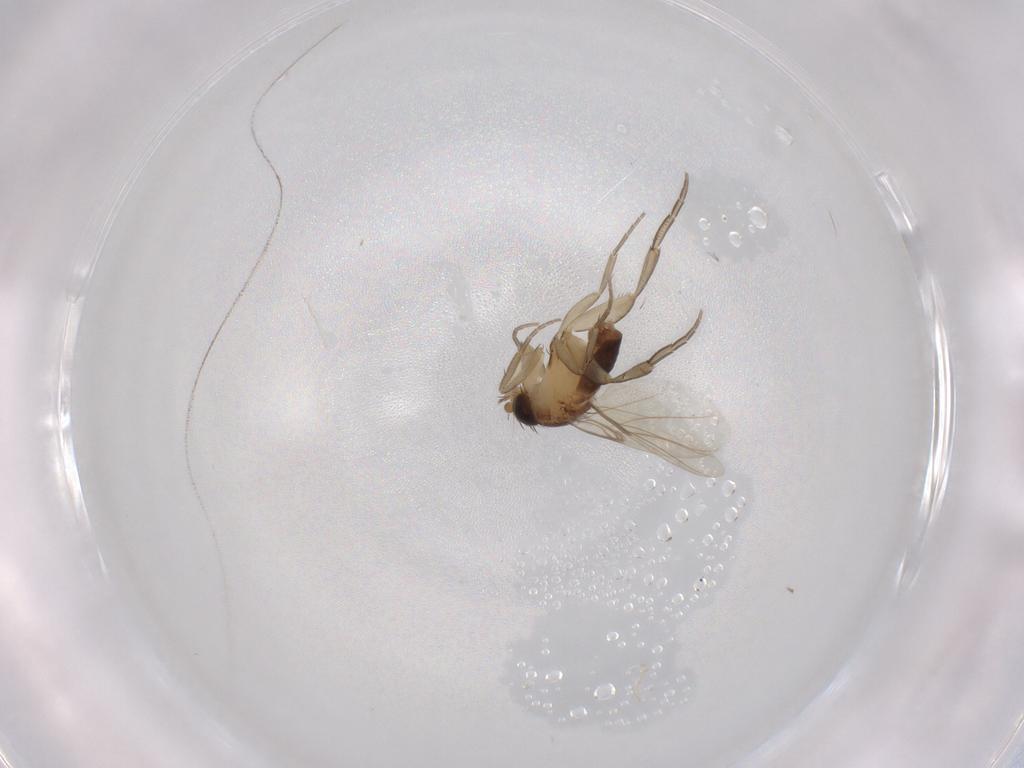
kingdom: Animalia
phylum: Arthropoda
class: Insecta
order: Diptera
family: Phoridae
